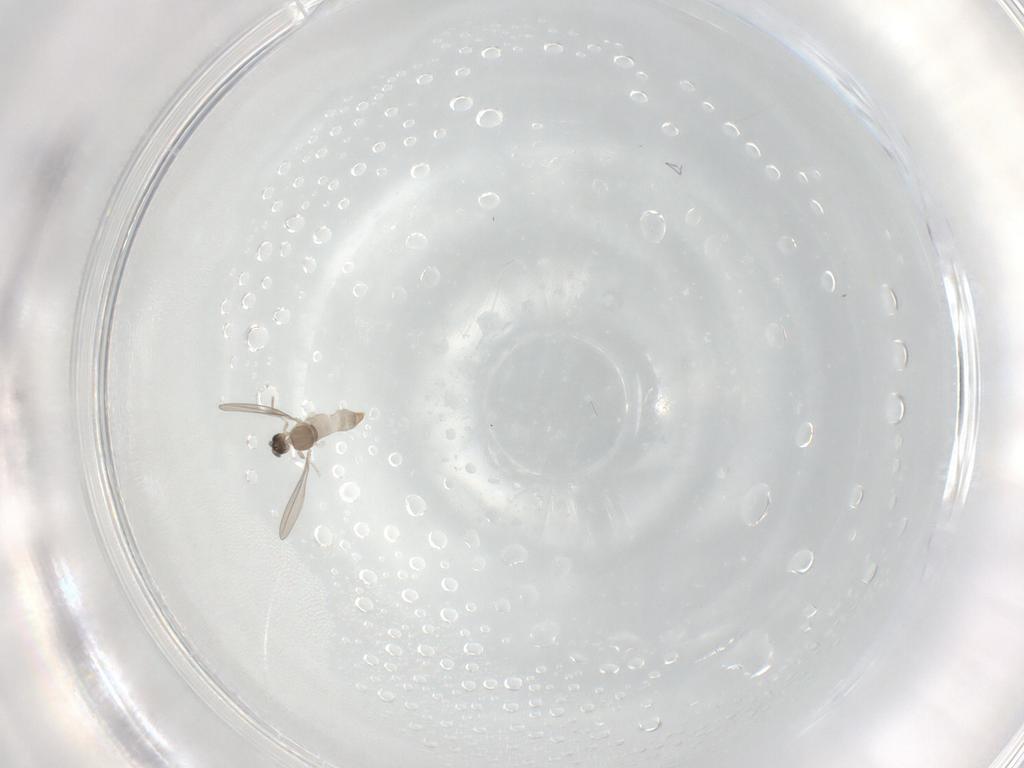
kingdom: Animalia
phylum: Arthropoda
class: Insecta
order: Diptera
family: Cecidomyiidae
